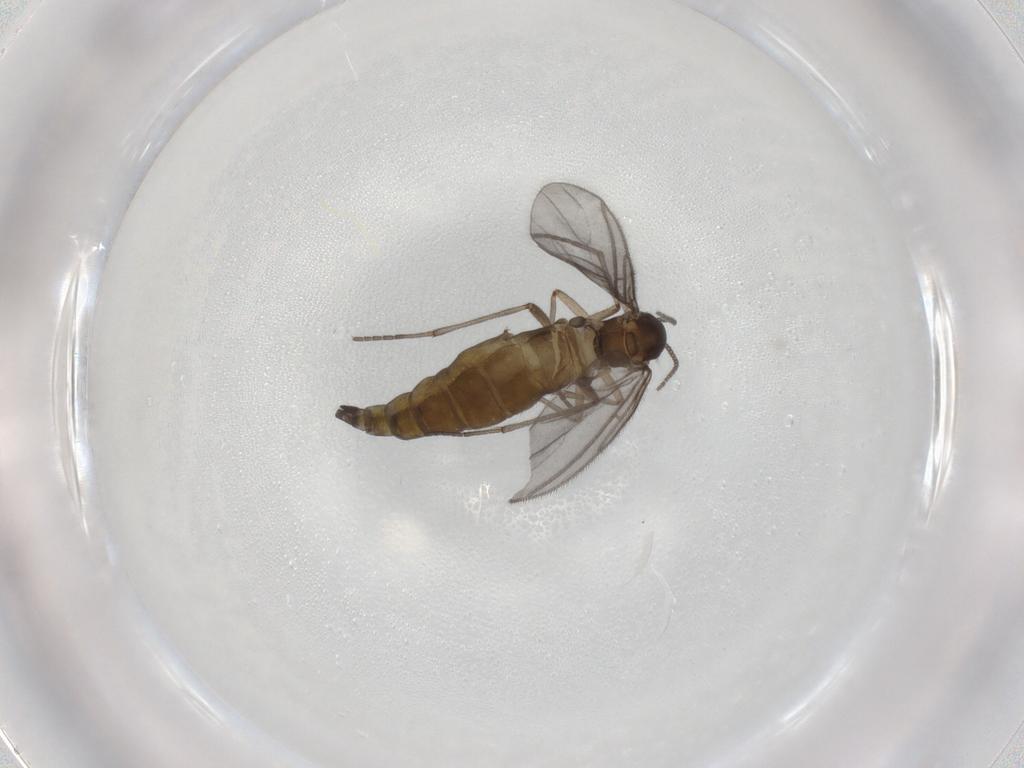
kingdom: Animalia
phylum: Arthropoda
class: Insecta
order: Diptera
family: Sciaridae
